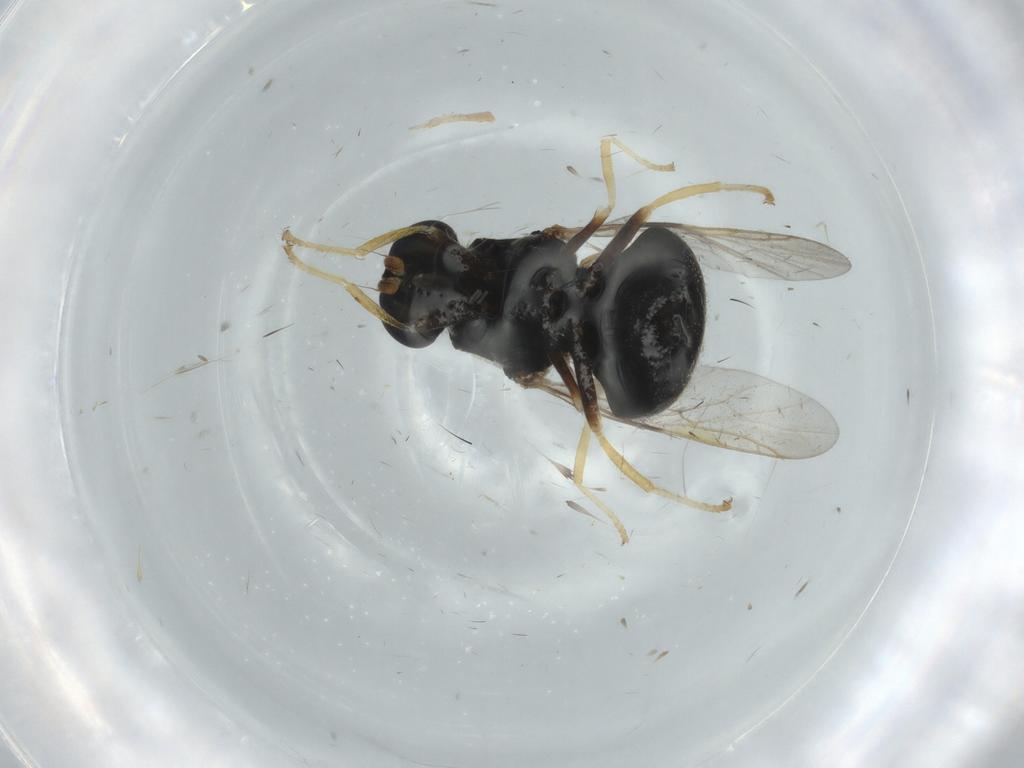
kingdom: Animalia
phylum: Arthropoda
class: Insecta
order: Diptera
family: Stratiomyidae
